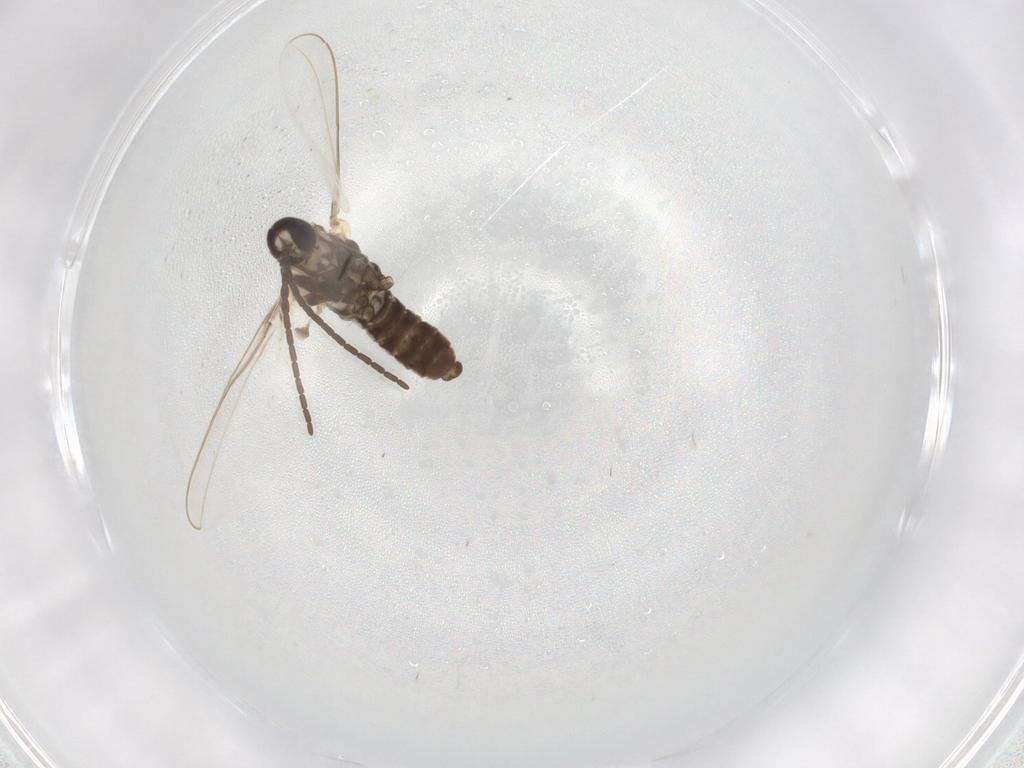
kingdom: Animalia
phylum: Arthropoda
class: Insecta
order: Diptera
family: Cecidomyiidae
